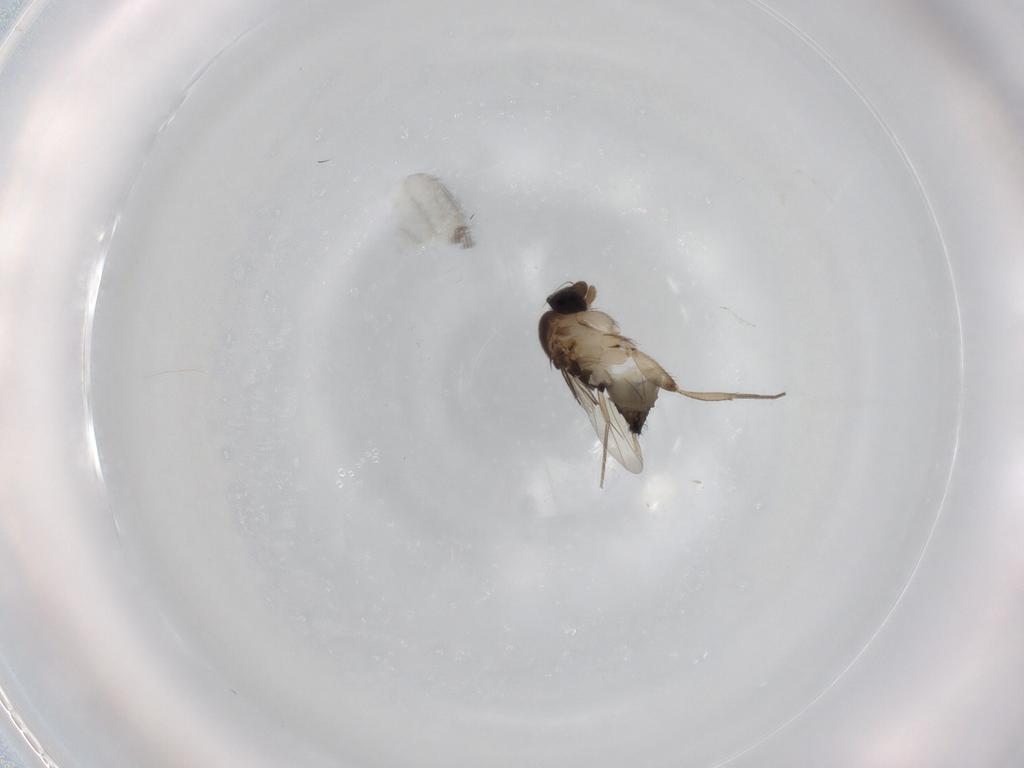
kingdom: Animalia
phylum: Arthropoda
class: Insecta
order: Diptera
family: Phoridae
